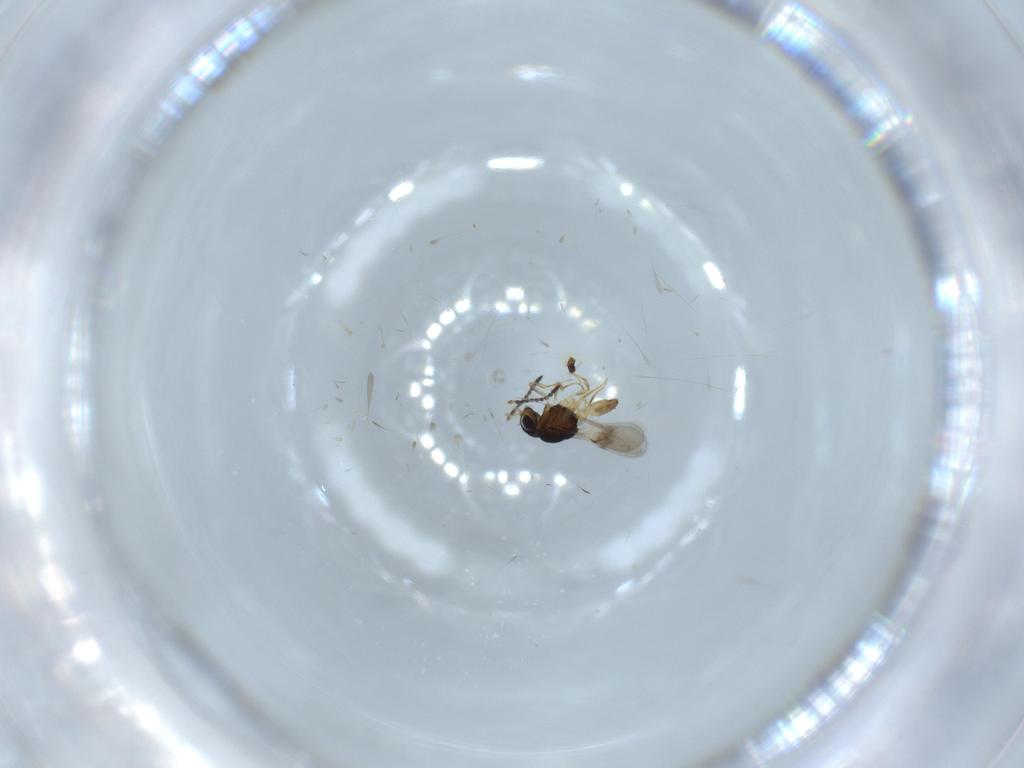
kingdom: Animalia
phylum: Arthropoda
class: Insecta
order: Hymenoptera
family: Scelionidae
